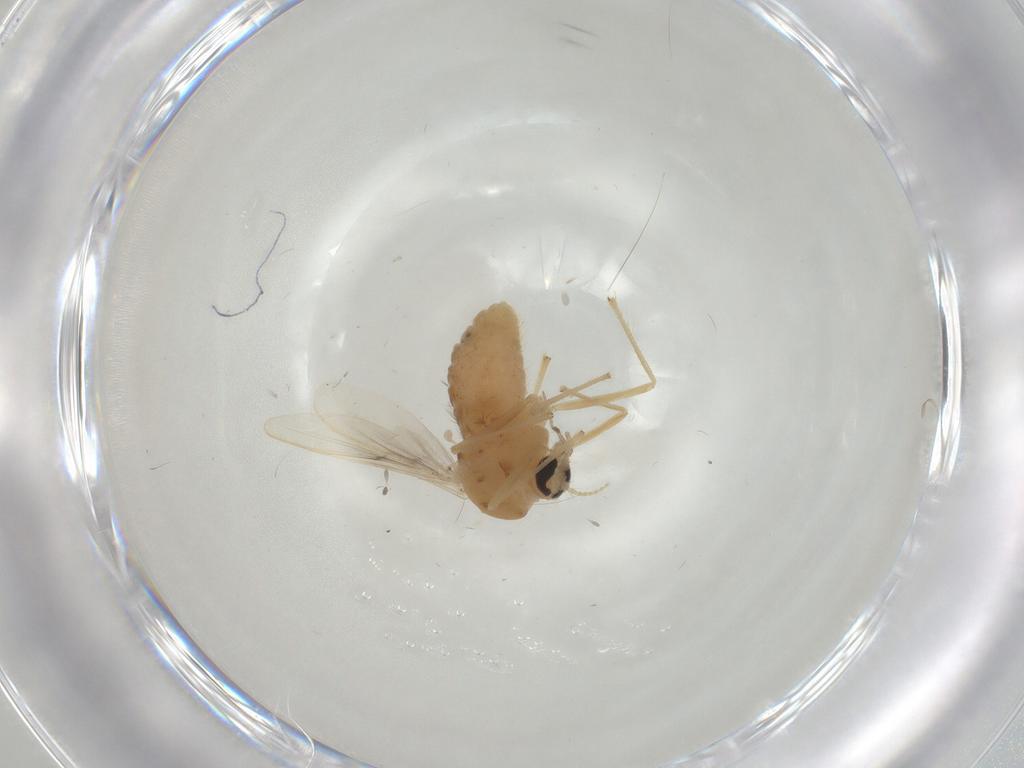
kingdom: Animalia
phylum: Arthropoda
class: Insecta
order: Diptera
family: Chironomidae
